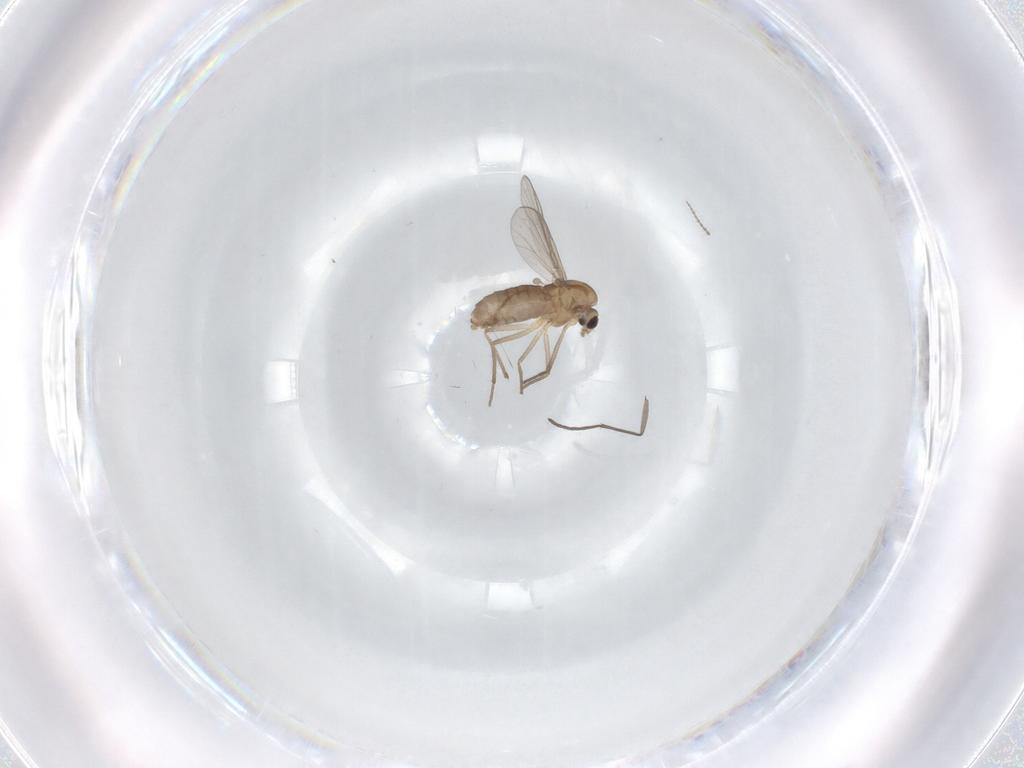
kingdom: Animalia
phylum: Arthropoda
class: Insecta
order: Diptera
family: Chironomidae
